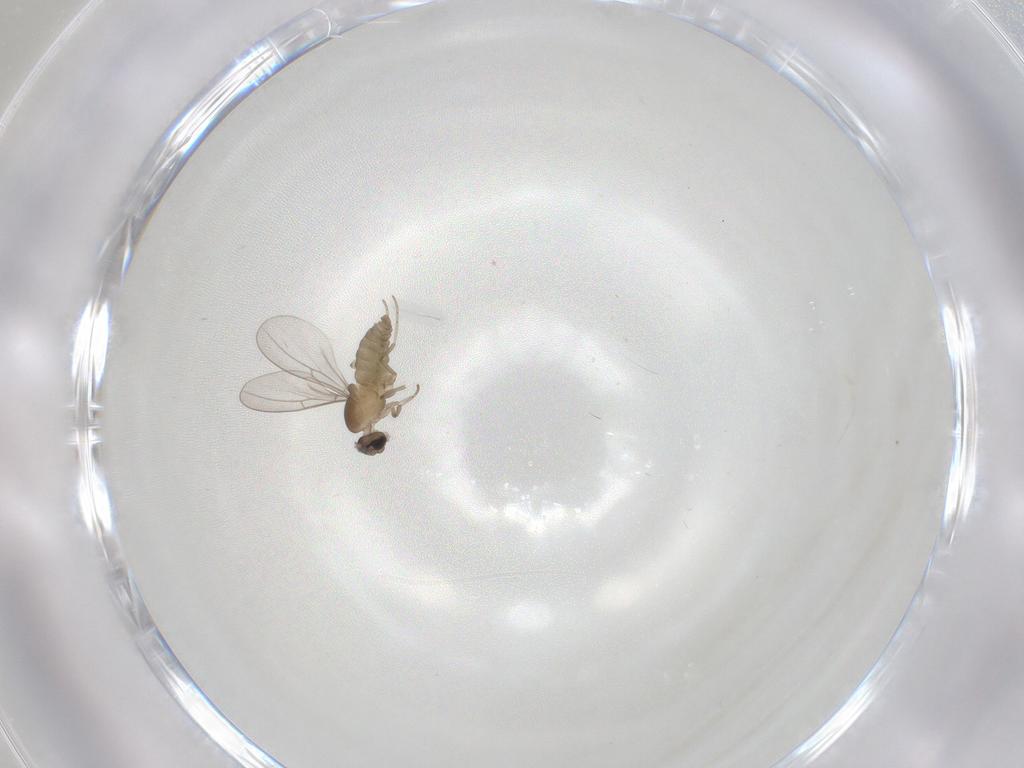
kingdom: Animalia
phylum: Arthropoda
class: Insecta
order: Diptera
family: Cecidomyiidae
